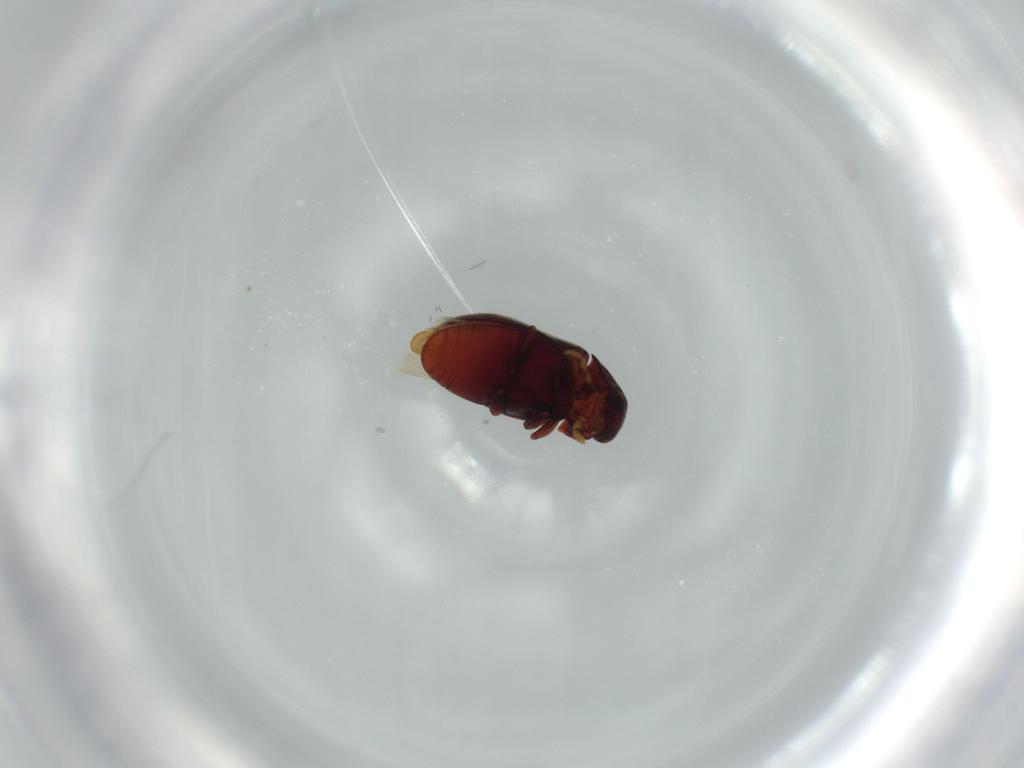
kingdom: Animalia
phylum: Arthropoda
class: Insecta
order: Coleoptera
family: Ptinidae
